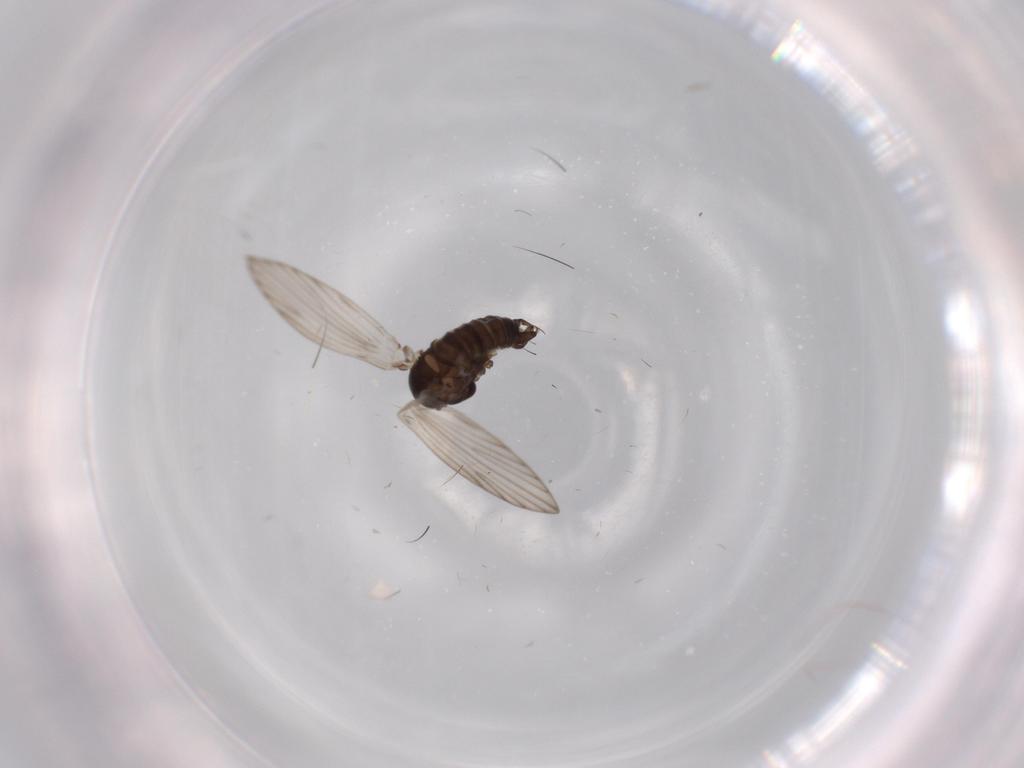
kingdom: Animalia
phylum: Arthropoda
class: Insecta
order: Diptera
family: Psychodidae
